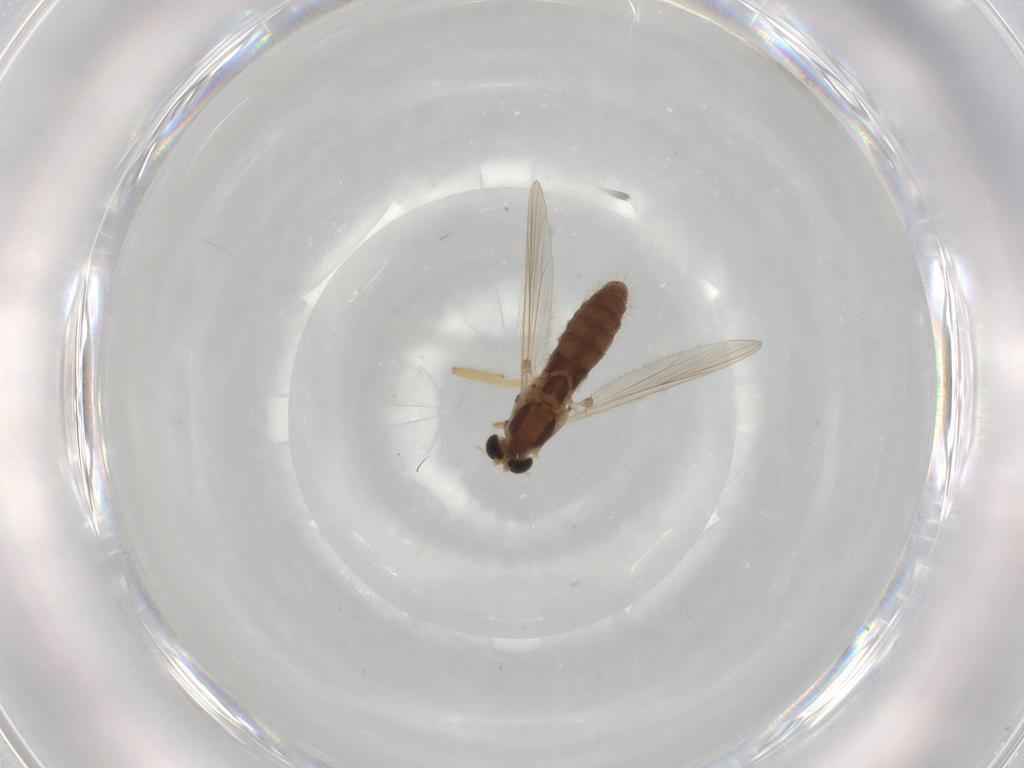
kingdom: Animalia
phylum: Arthropoda
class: Insecta
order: Diptera
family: Chironomidae
